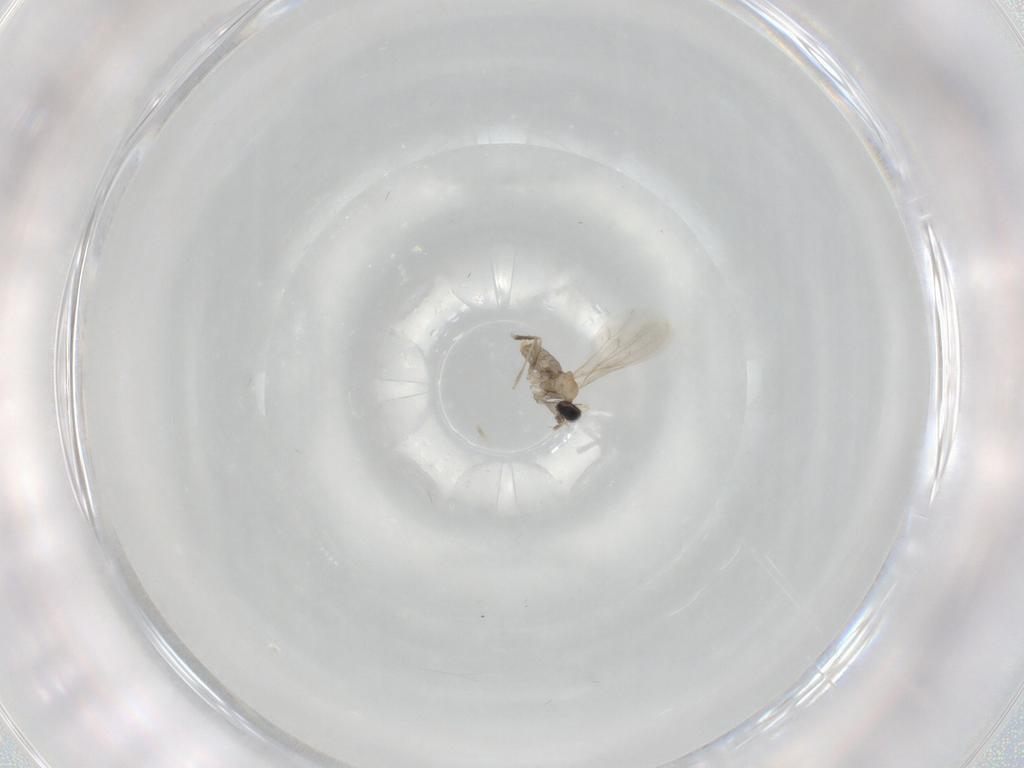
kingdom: Animalia
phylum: Arthropoda
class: Insecta
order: Diptera
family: Cecidomyiidae
